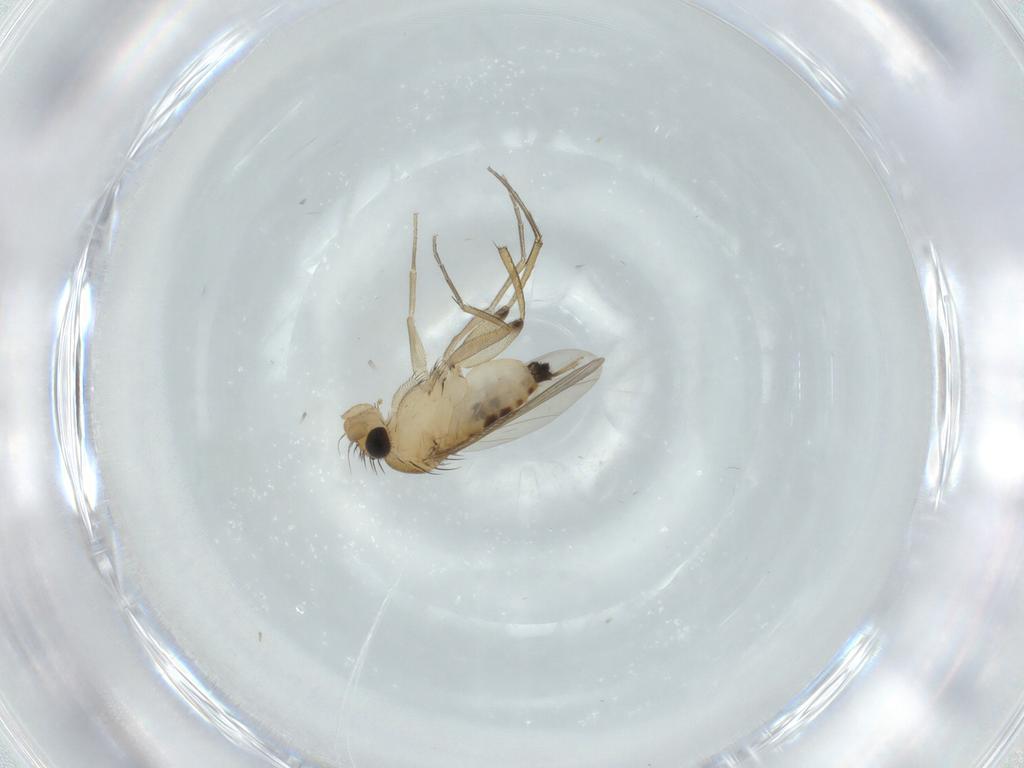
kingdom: Animalia
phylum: Arthropoda
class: Insecta
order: Diptera
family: Phoridae
